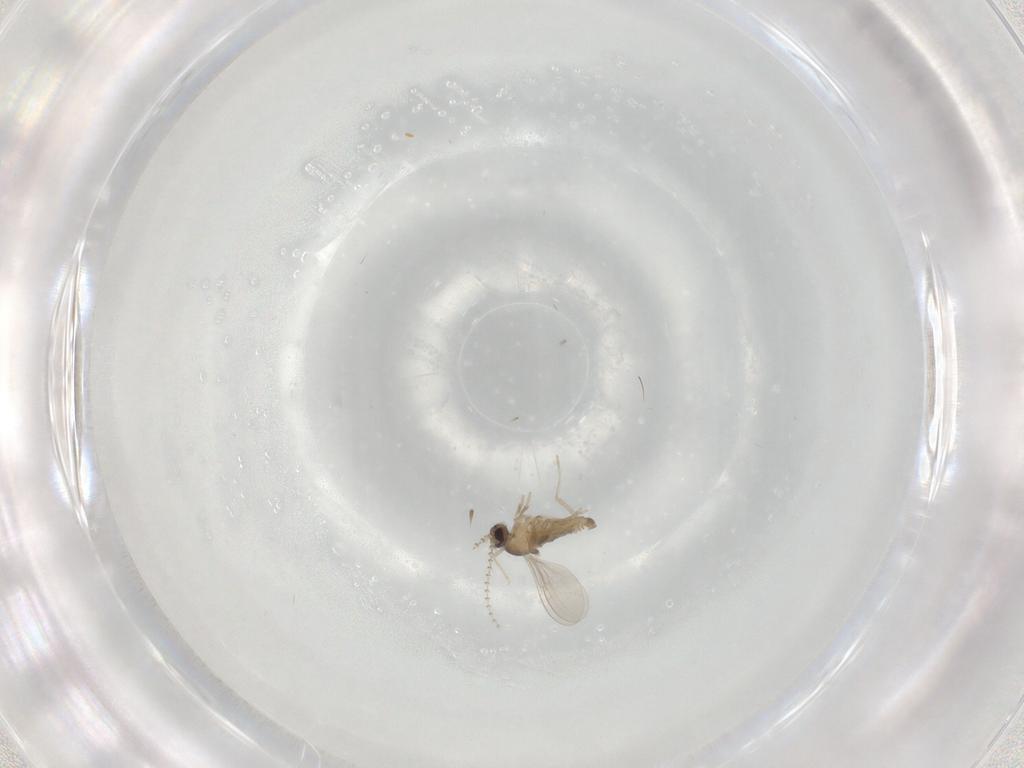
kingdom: Animalia
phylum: Arthropoda
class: Insecta
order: Diptera
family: Cecidomyiidae
